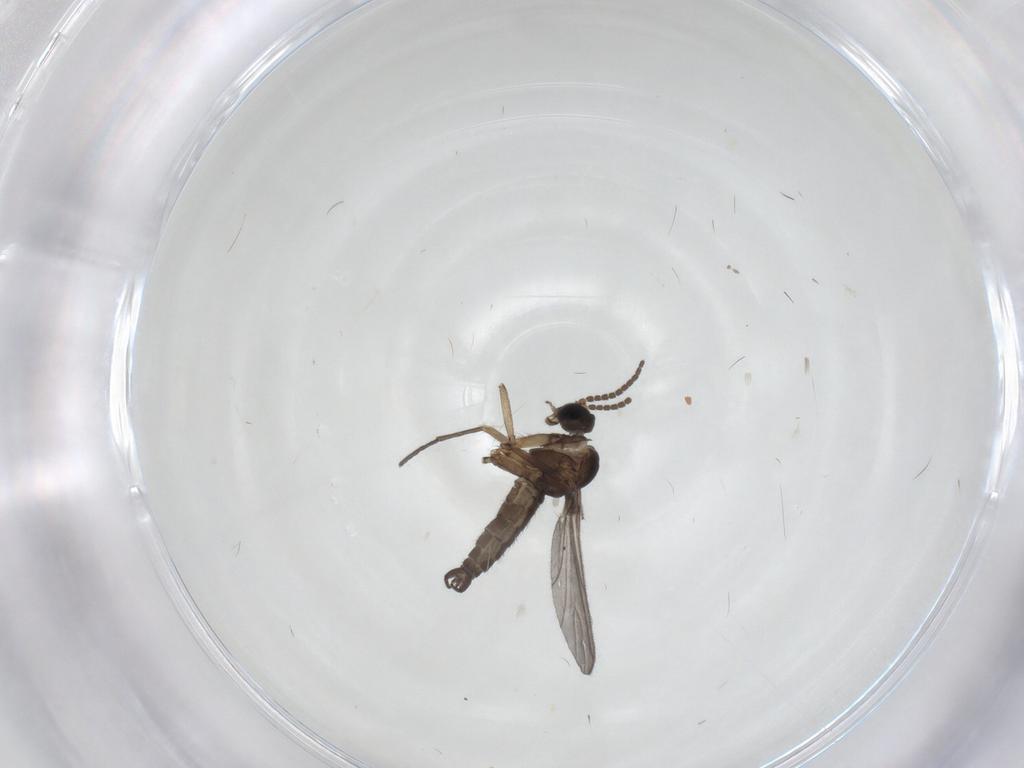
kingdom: Animalia
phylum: Arthropoda
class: Insecta
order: Diptera
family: Sciaridae
